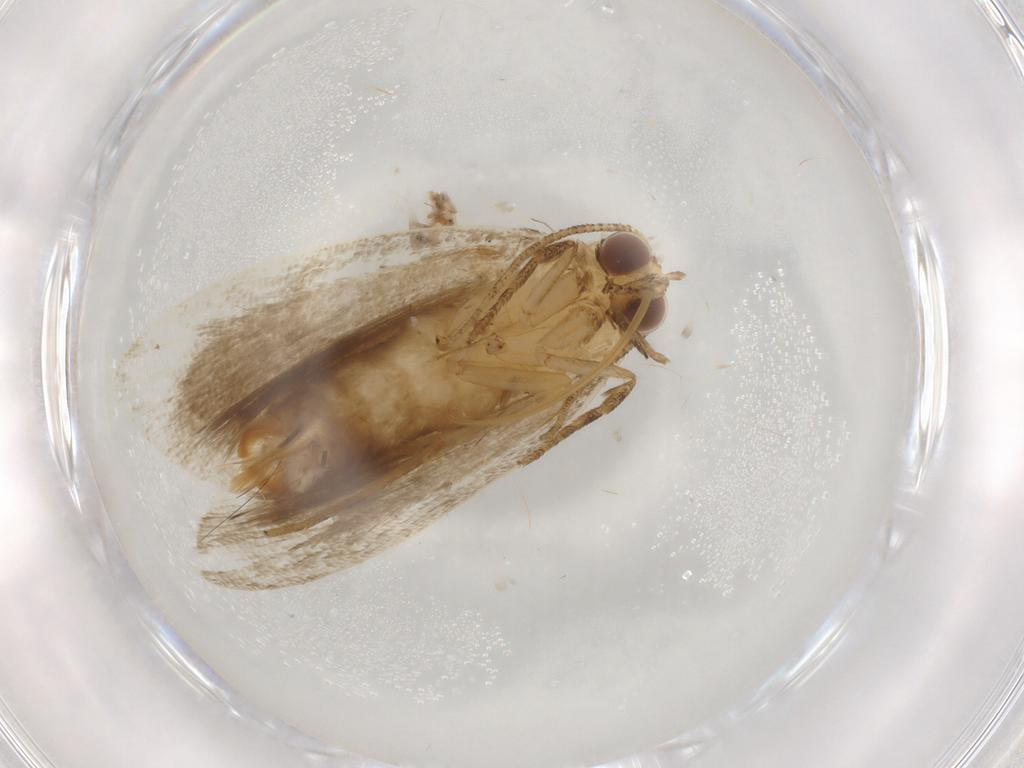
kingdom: Animalia
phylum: Arthropoda
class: Insecta
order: Lepidoptera
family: Erebidae
